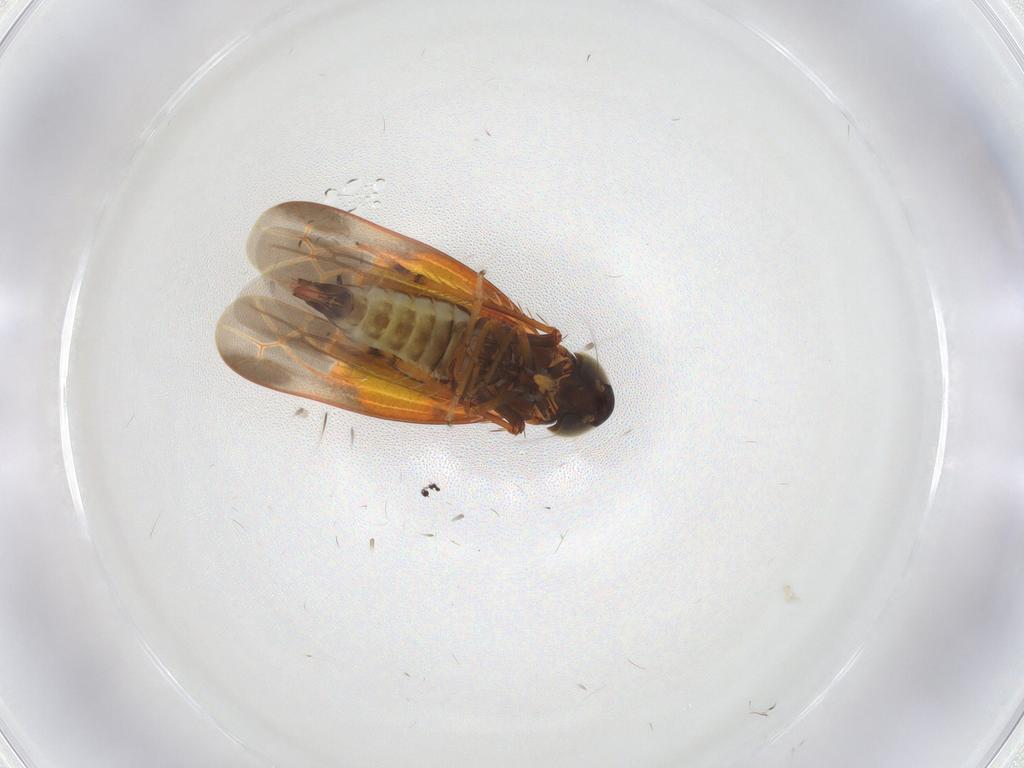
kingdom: Animalia
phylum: Arthropoda
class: Insecta
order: Hemiptera
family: Cicadellidae
